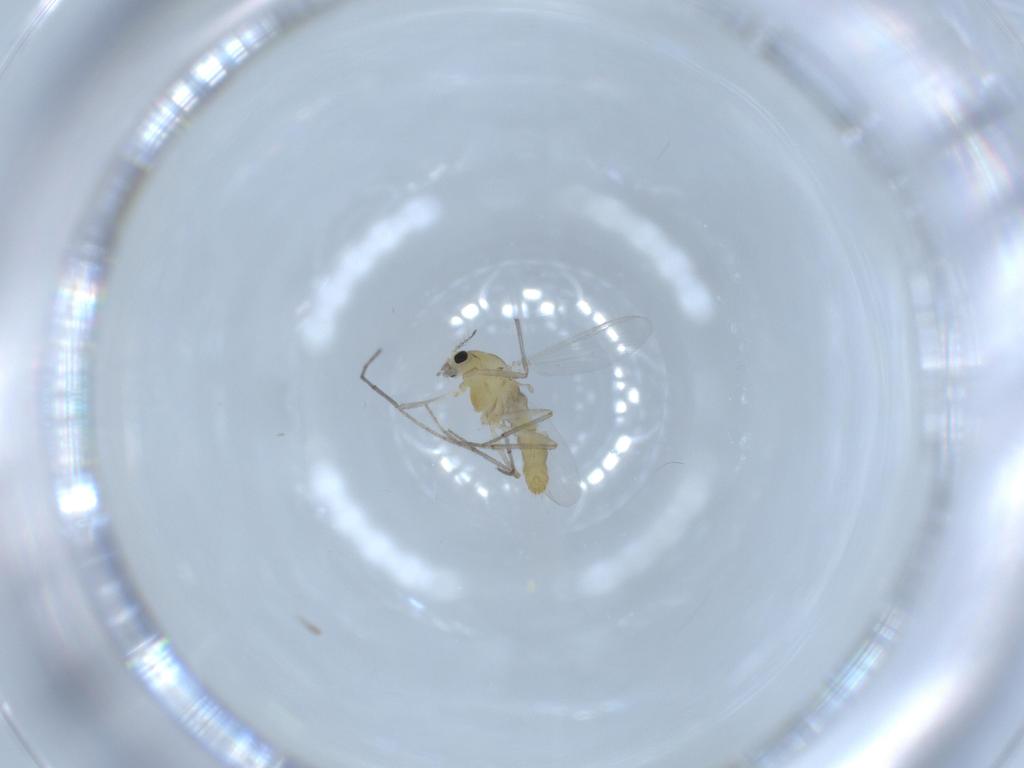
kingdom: Animalia
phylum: Arthropoda
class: Insecta
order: Diptera
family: Chironomidae
